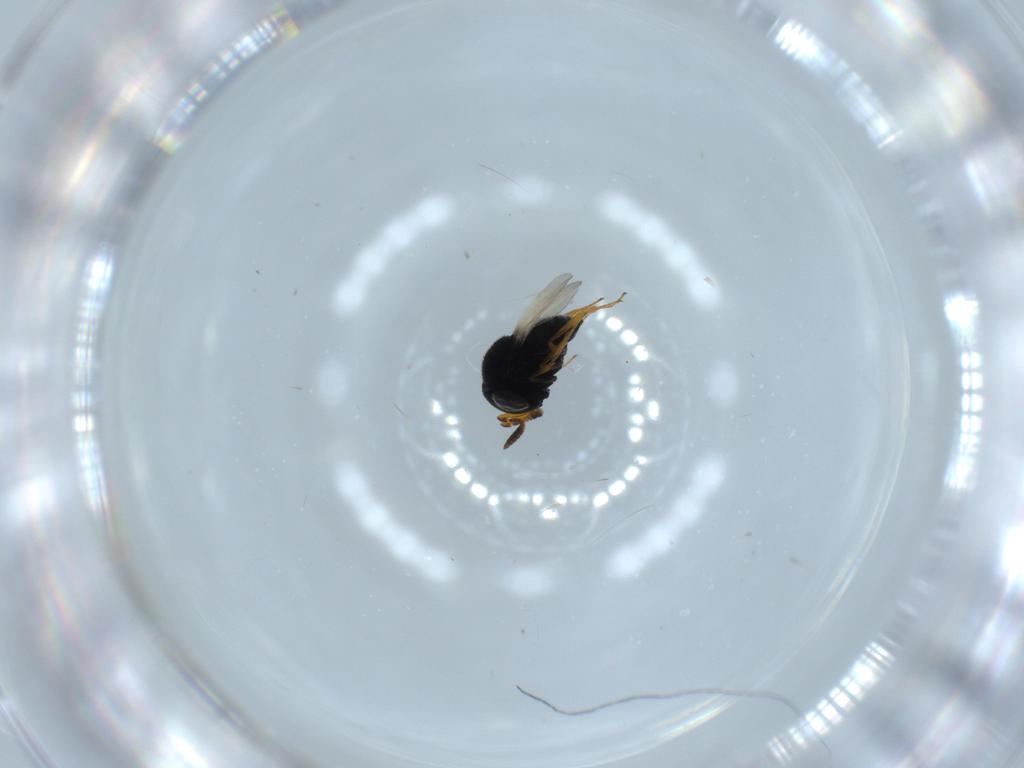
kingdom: Animalia
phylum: Arthropoda
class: Insecta
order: Hymenoptera
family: Scelionidae
